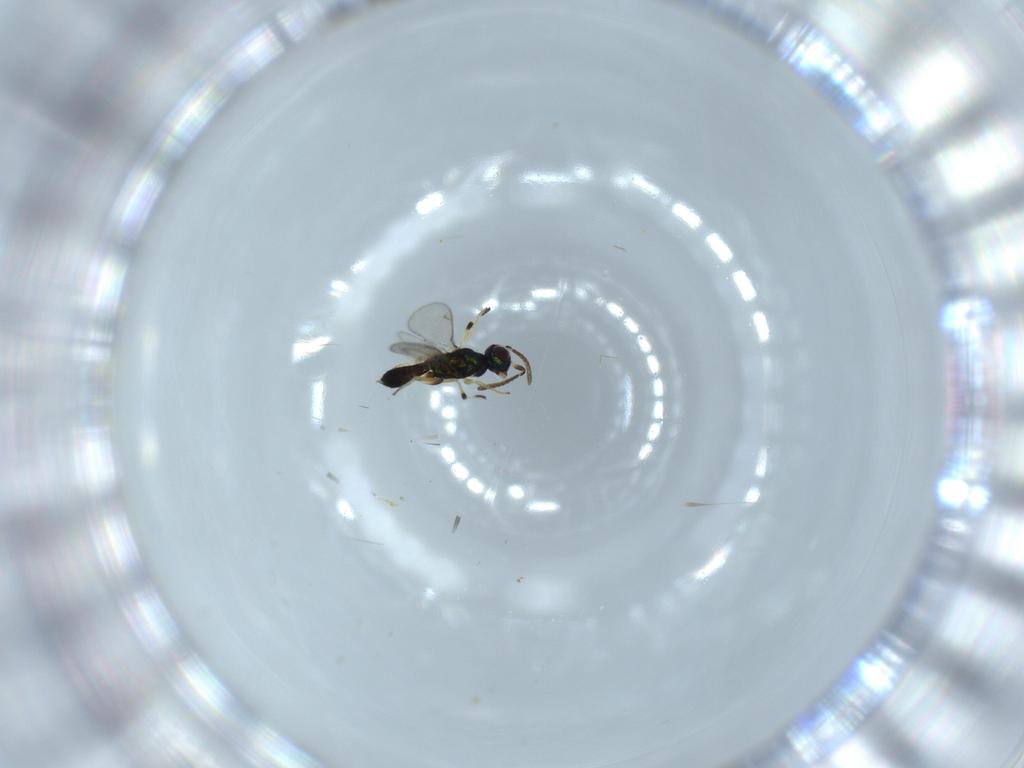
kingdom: Animalia
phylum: Arthropoda
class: Insecta
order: Hymenoptera
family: Eupelmidae
